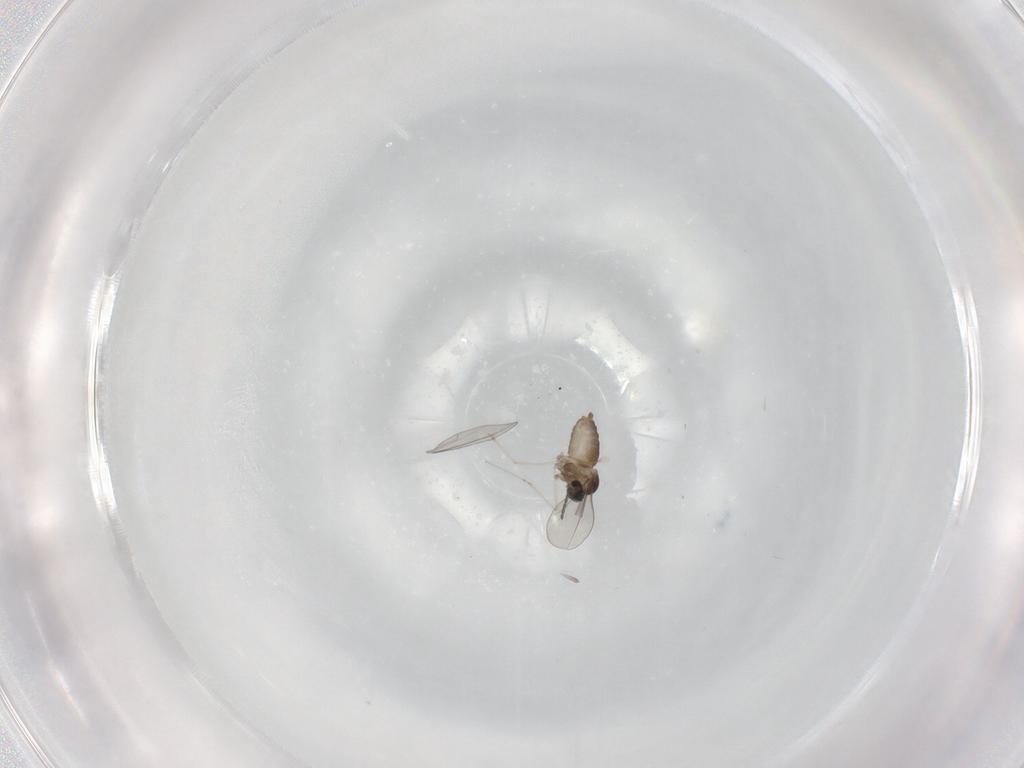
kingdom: Animalia
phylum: Arthropoda
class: Insecta
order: Diptera
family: Cecidomyiidae
